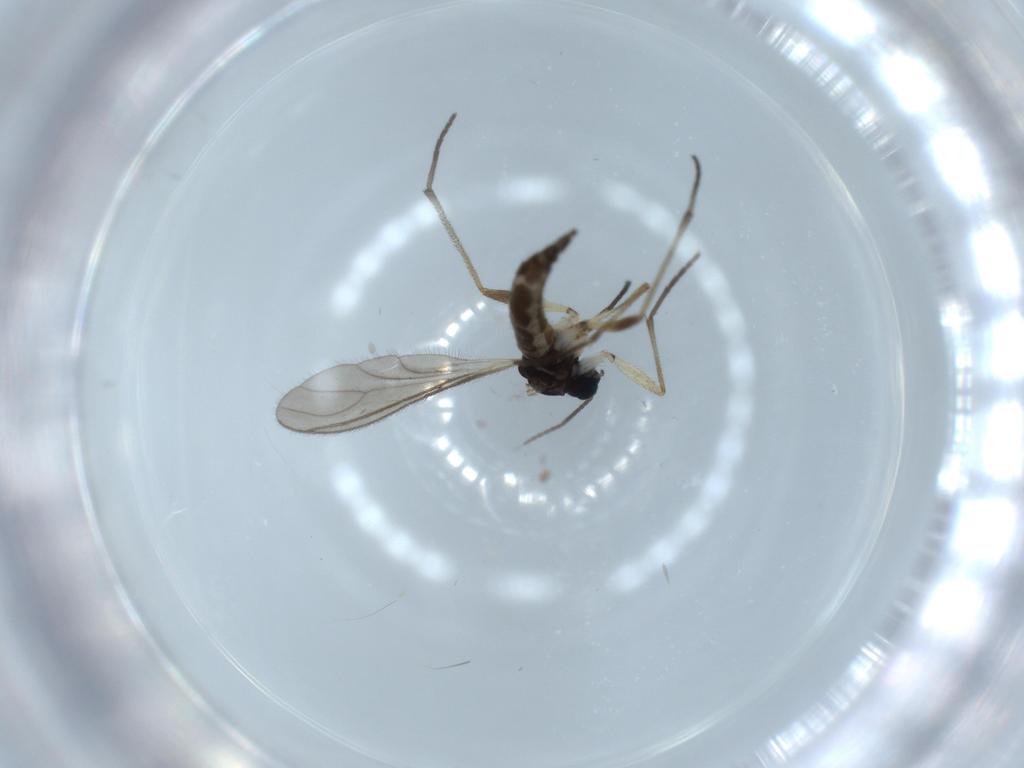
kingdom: Animalia
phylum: Arthropoda
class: Insecta
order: Diptera
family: Sciaridae
